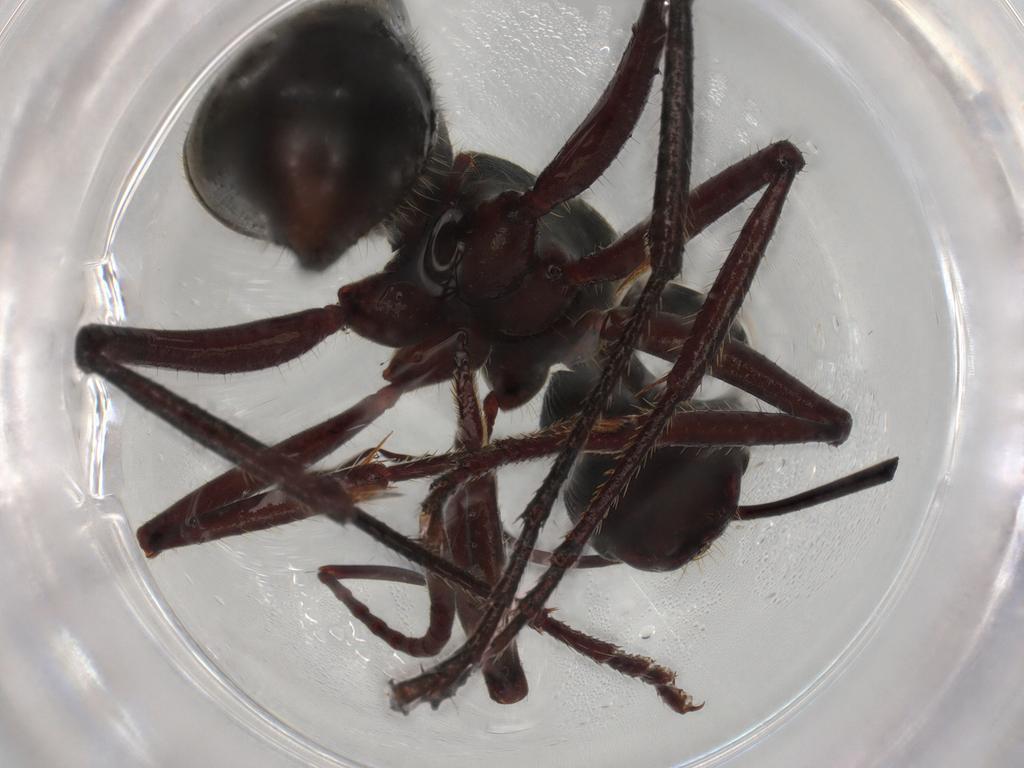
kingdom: Animalia
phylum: Arthropoda
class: Insecta
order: Hymenoptera
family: Formicidae
